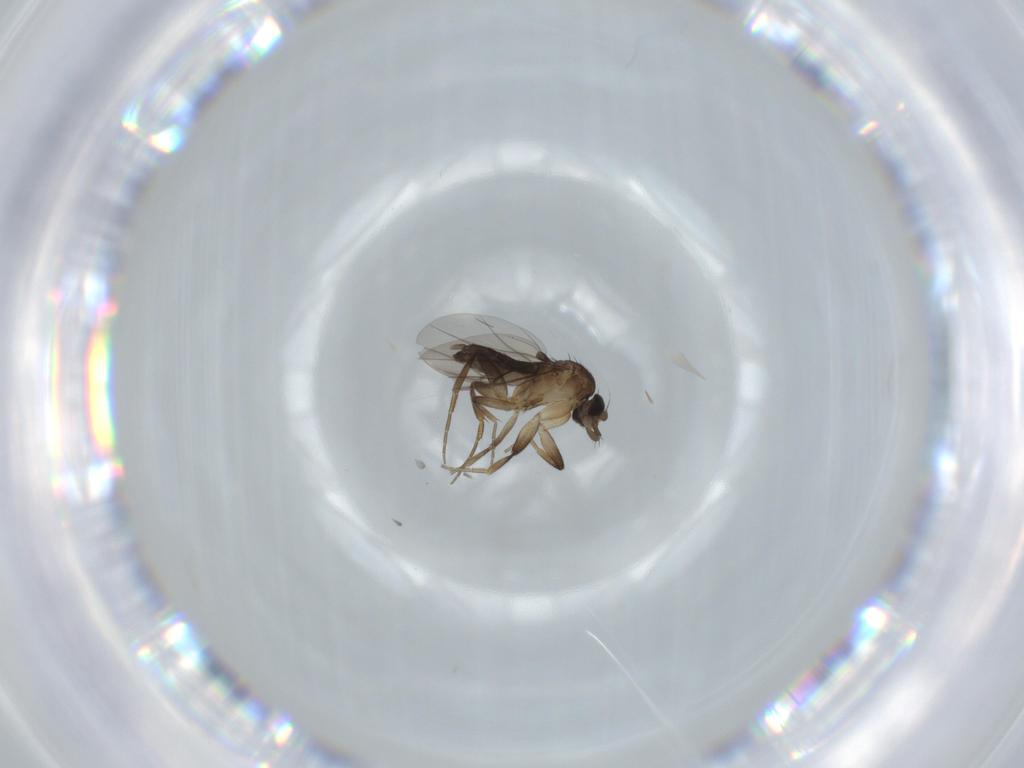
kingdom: Animalia
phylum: Arthropoda
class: Insecta
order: Diptera
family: Phoridae
